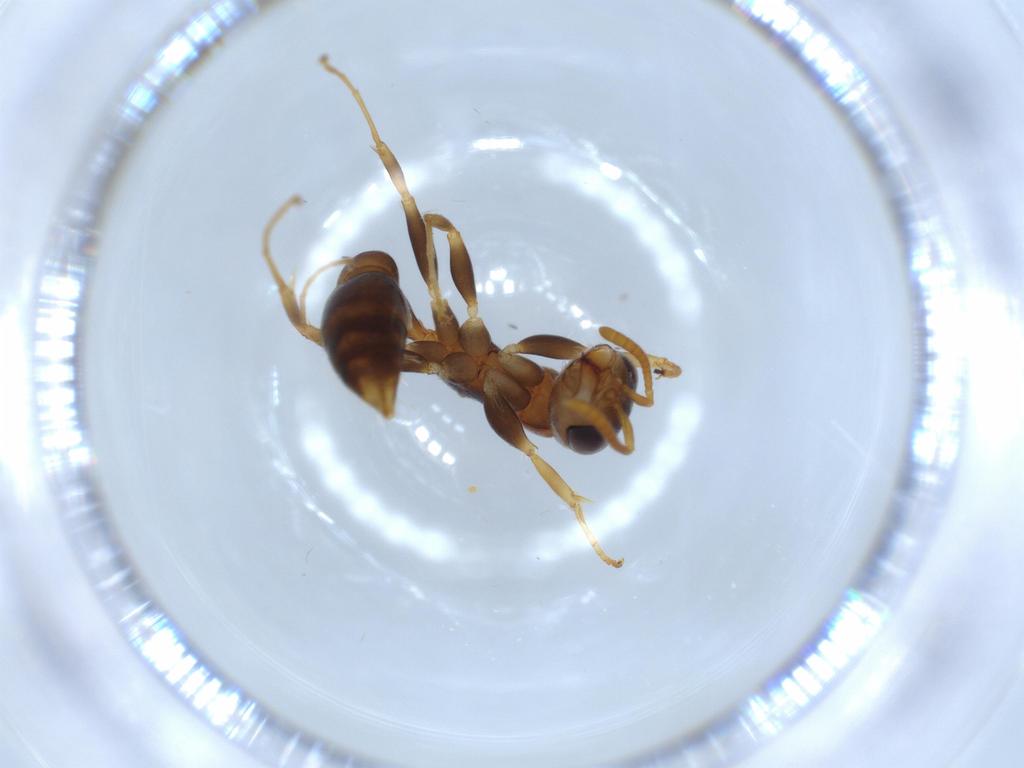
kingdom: Animalia
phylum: Arthropoda
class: Insecta
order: Hymenoptera
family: Formicidae
